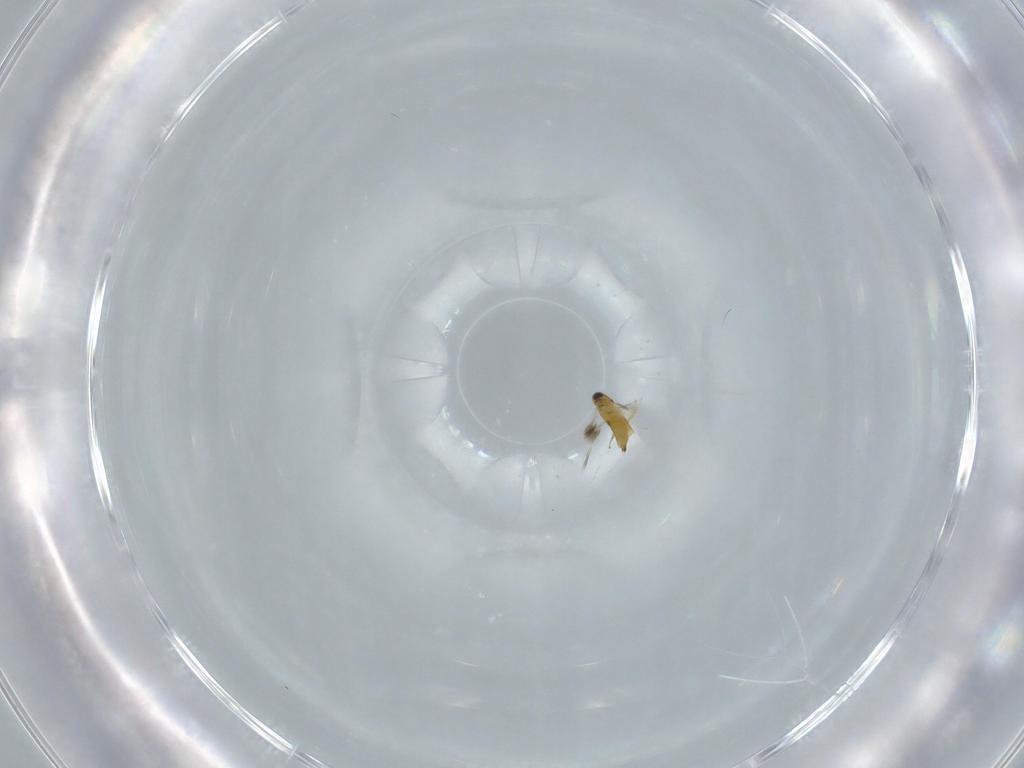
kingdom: Animalia
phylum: Arthropoda
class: Insecta
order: Hymenoptera
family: Signiphoridae
